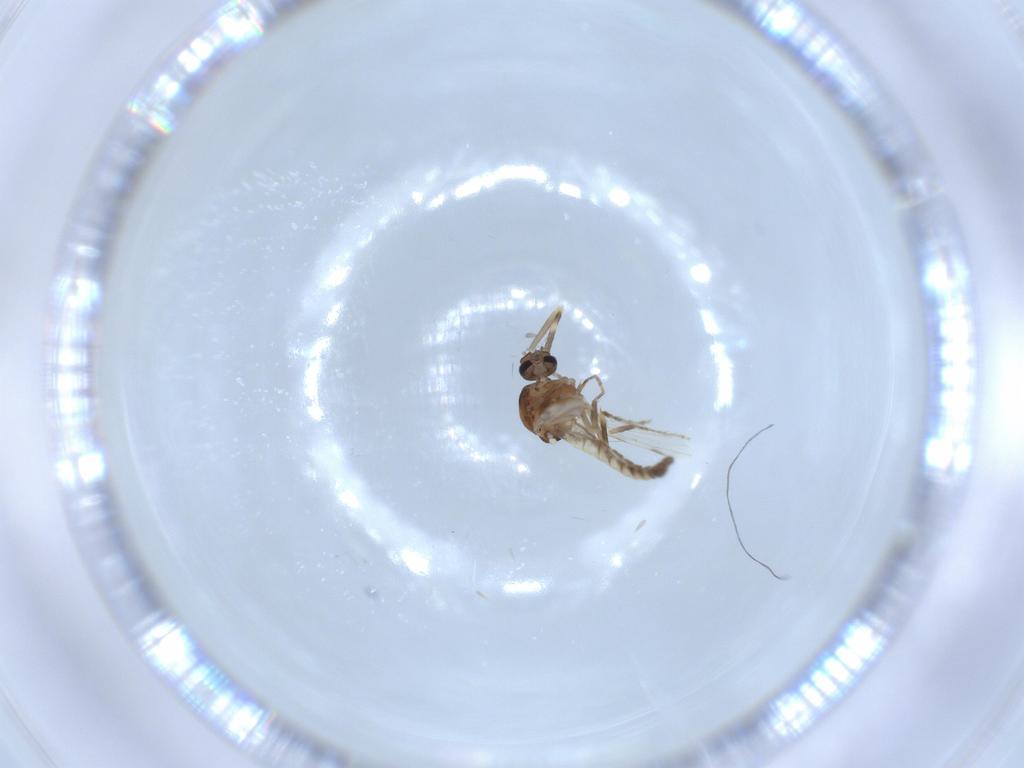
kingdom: Animalia
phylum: Arthropoda
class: Insecta
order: Diptera
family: Ceratopogonidae
